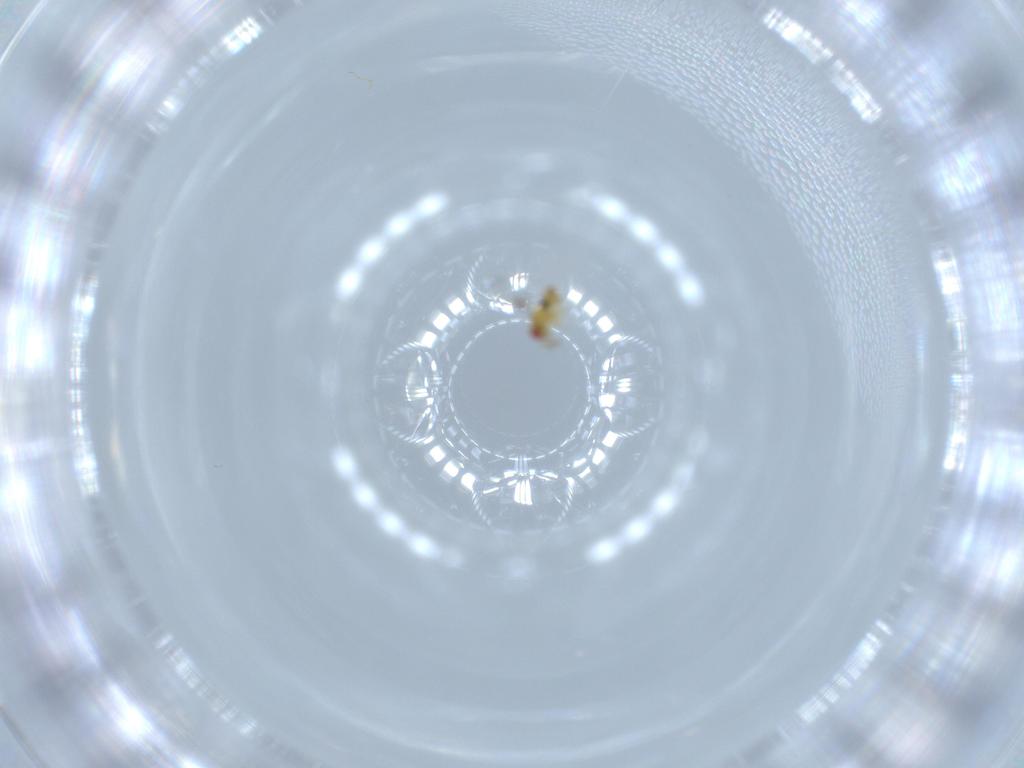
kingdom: Animalia
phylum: Arthropoda
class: Insecta
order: Hymenoptera
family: Trichogrammatidae
